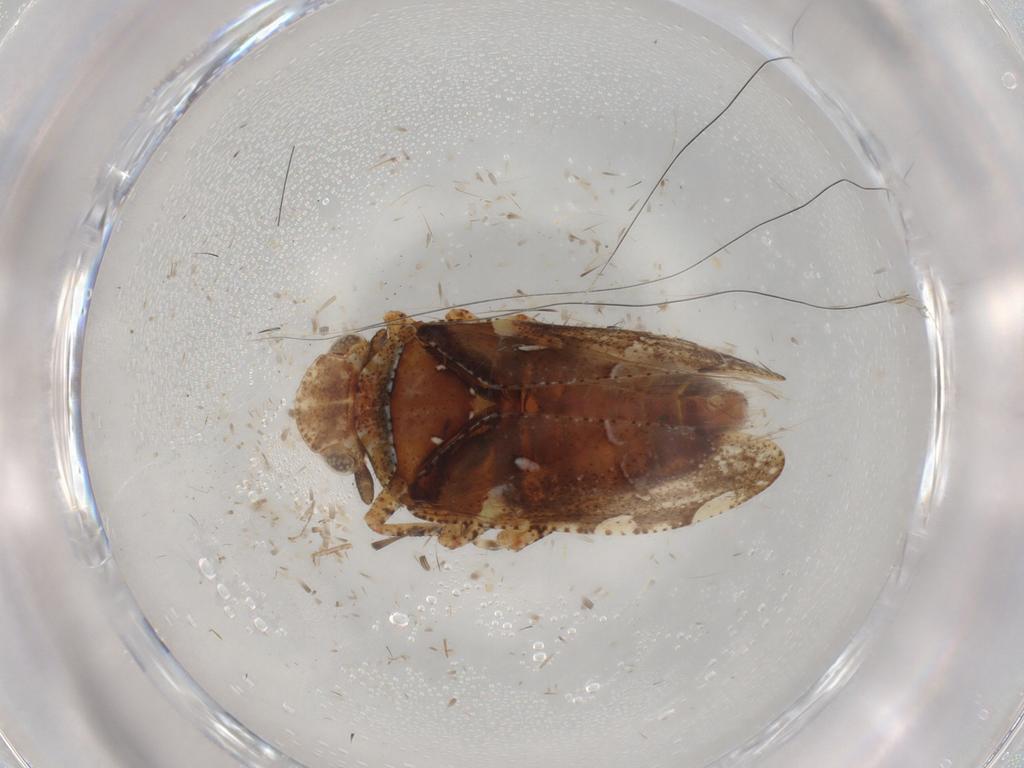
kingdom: Animalia
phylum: Arthropoda
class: Insecta
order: Hemiptera
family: Tettigometridae
